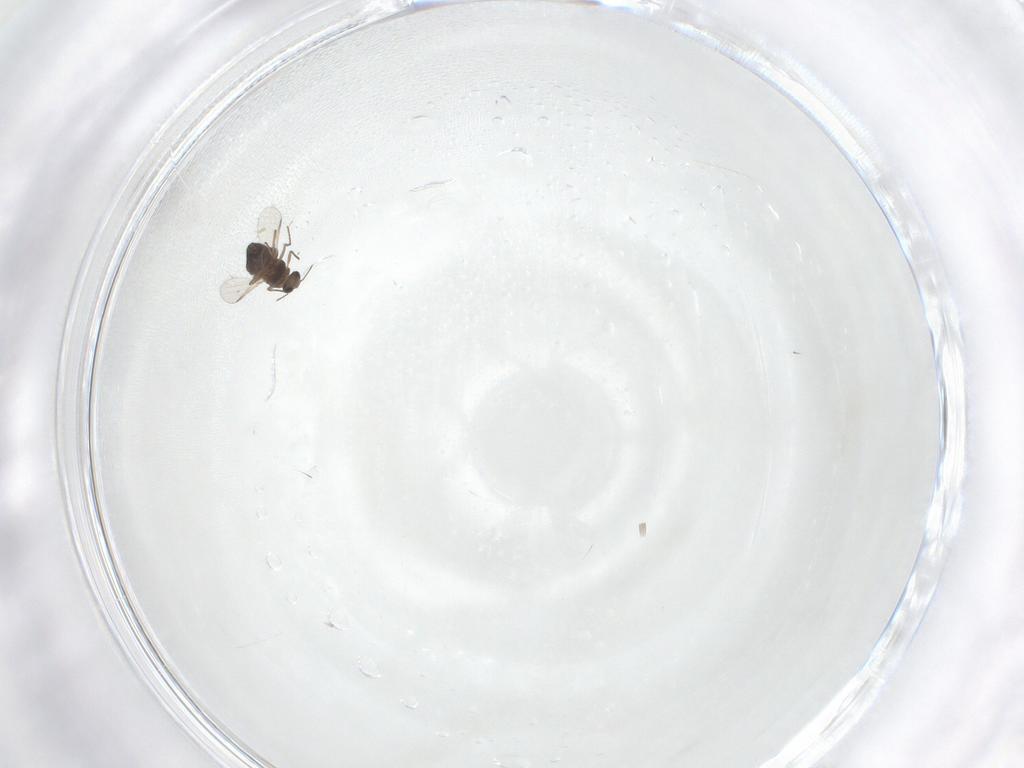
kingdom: Animalia
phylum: Arthropoda
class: Insecta
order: Diptera
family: Chironomidae
